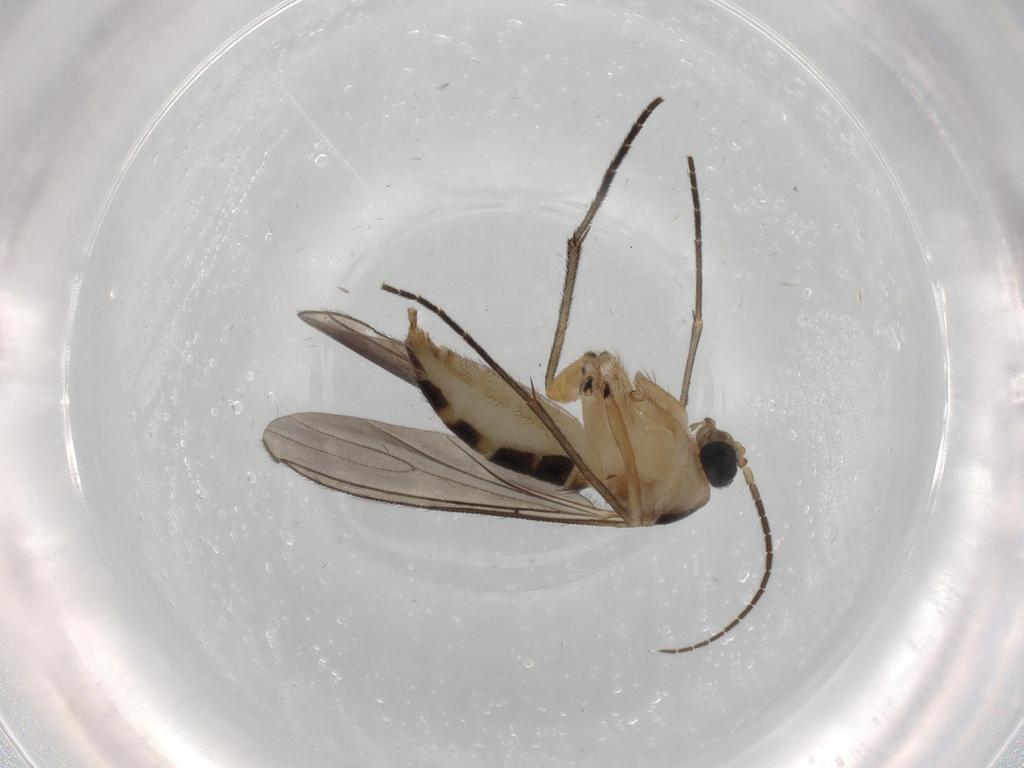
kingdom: Animalia
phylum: Arthropoda
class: Insecta
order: Diptera
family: Sciaridae
